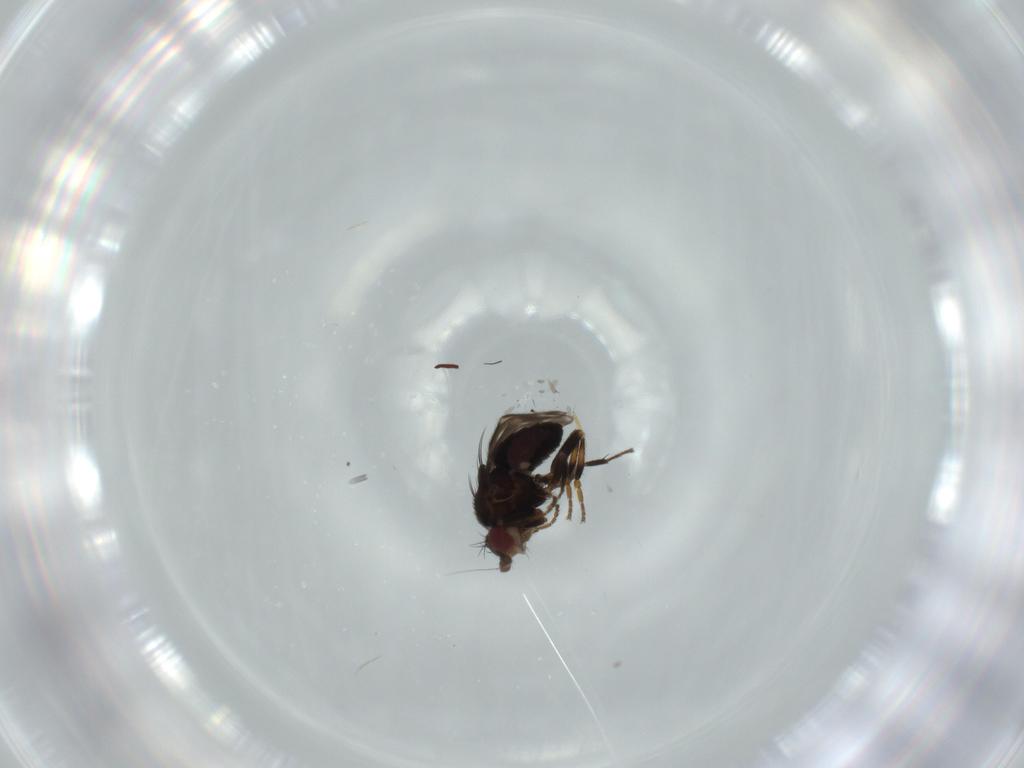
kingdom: Animalia
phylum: Arthropoda
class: Insecta
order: Diptera
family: Sphaeroceridae
